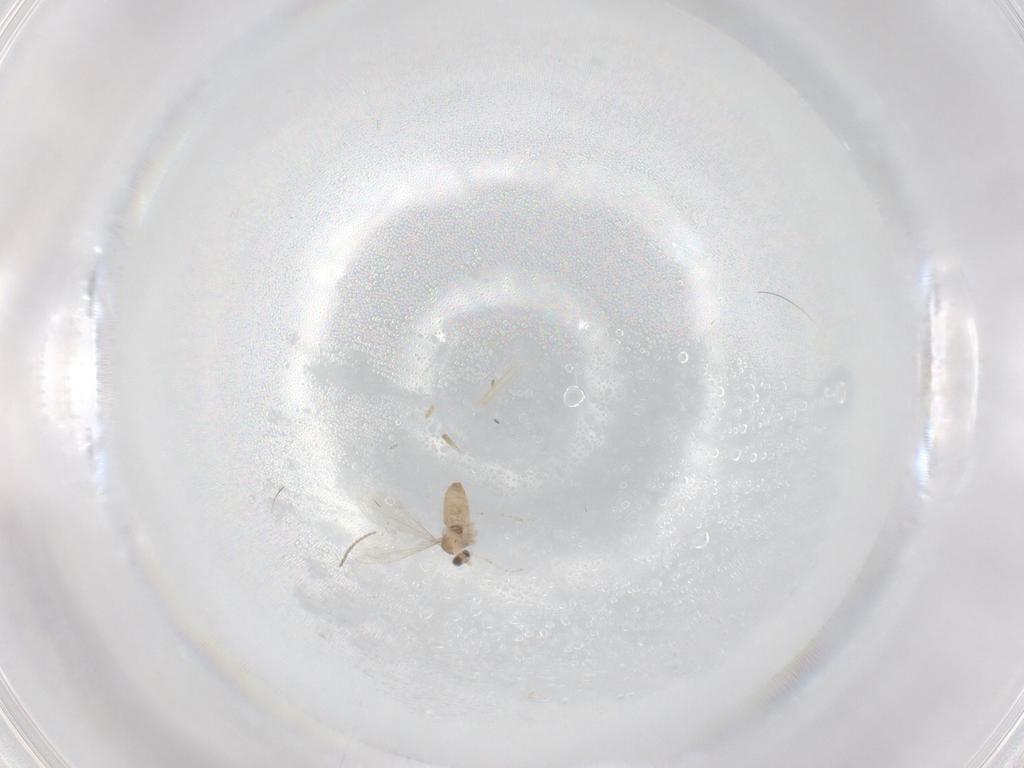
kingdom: Animalia
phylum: Arthropoda
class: Insecta
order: Diptera
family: Cecidomyiidae
